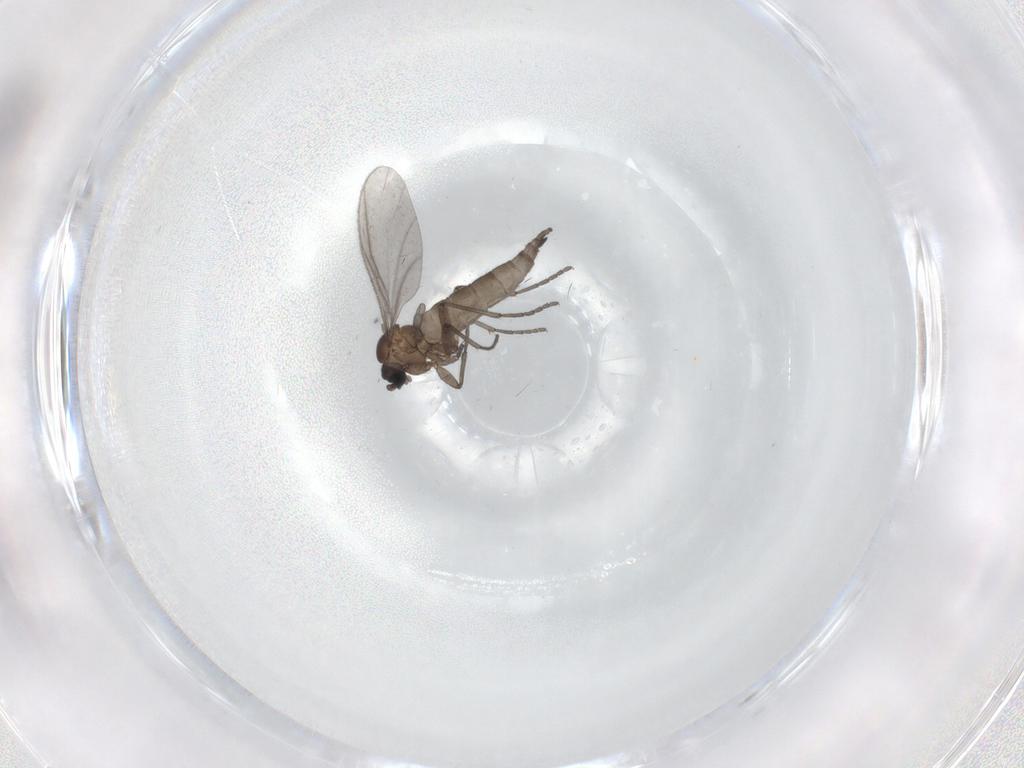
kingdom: Animalia
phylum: Arthropoda
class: Insecta
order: Diptera
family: Sciaridae
